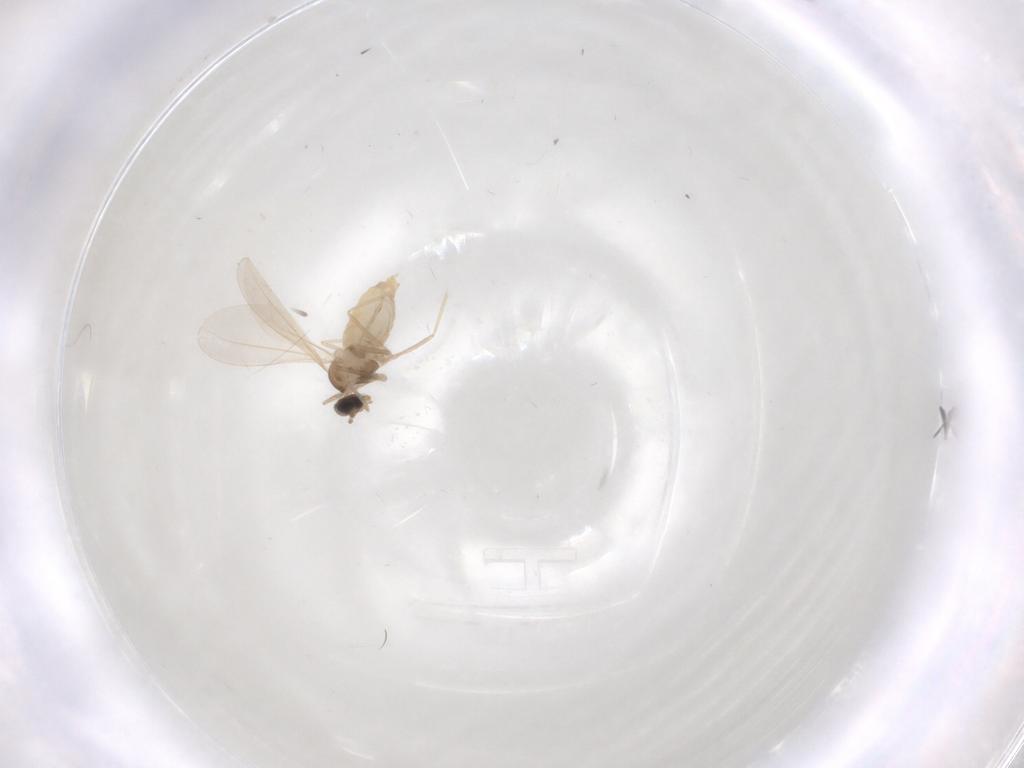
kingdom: Animalia
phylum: Arthropoda
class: Insecta
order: Diptera
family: Cecidomyiidae
